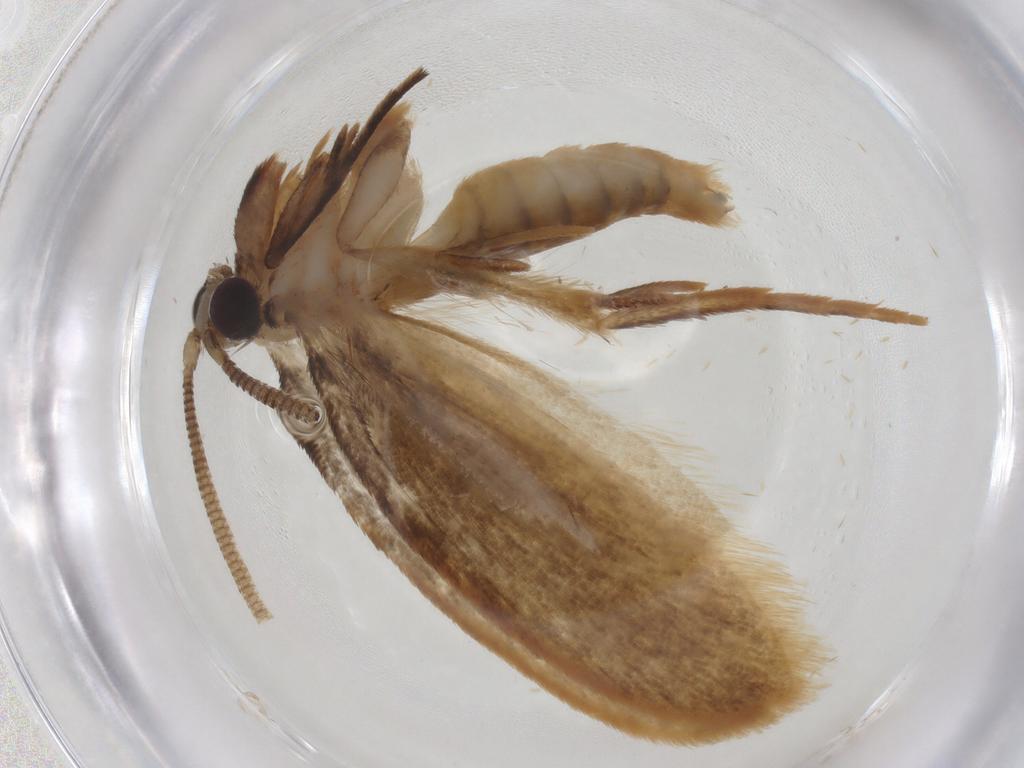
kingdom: Animalia
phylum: Arthropoda
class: Insecta
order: Lepidoptera
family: Tineidae
